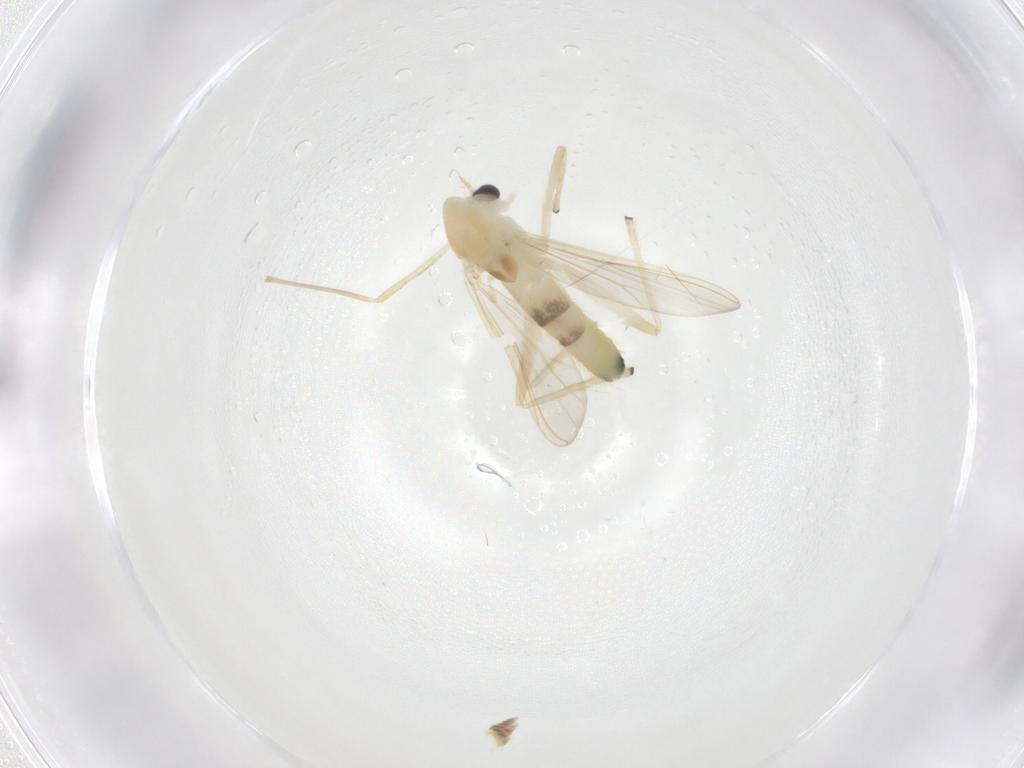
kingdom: Animalia
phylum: Arthropoda
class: Insecta
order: Diptera
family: Chironomidae
